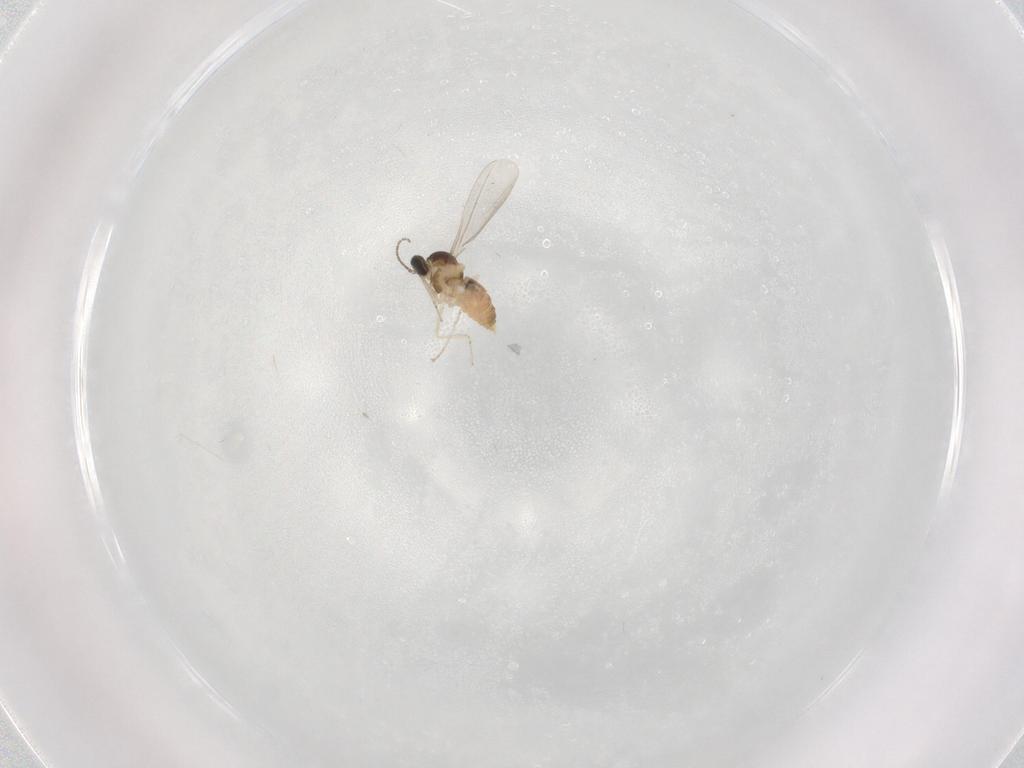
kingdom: Animalia
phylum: Arthropoda
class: Insecta
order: Diptera
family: Cecidomyiidae
